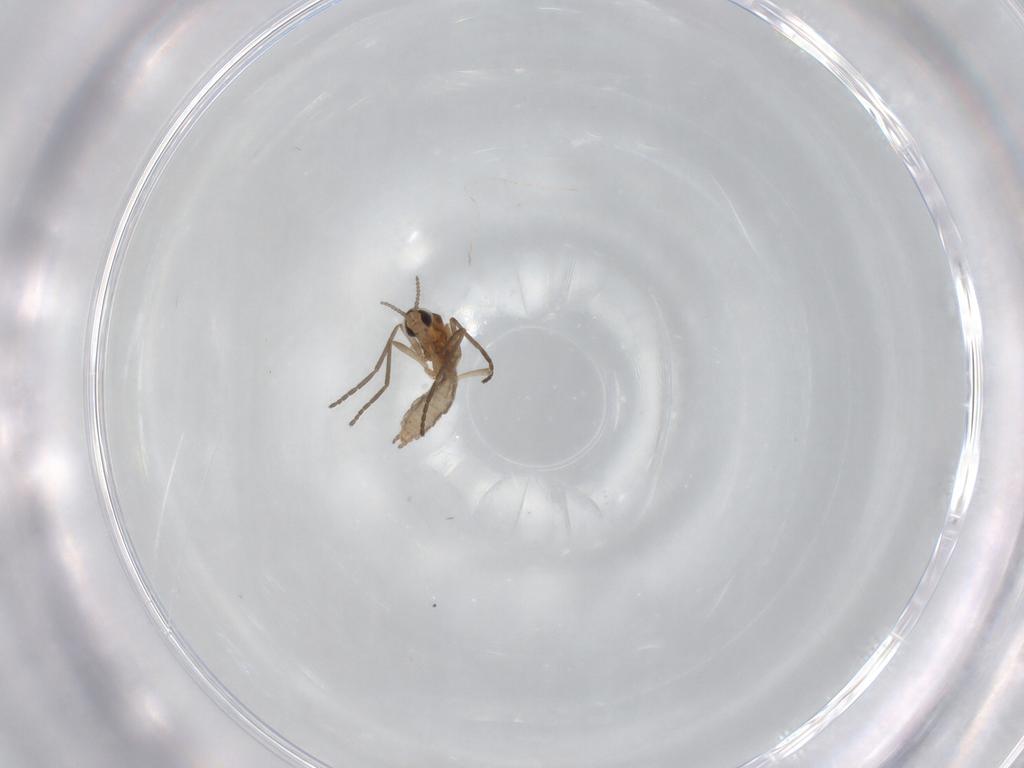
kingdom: Animalia
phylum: Arthropoda
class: Insecta
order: Diptera
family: Cecidomyiidae
